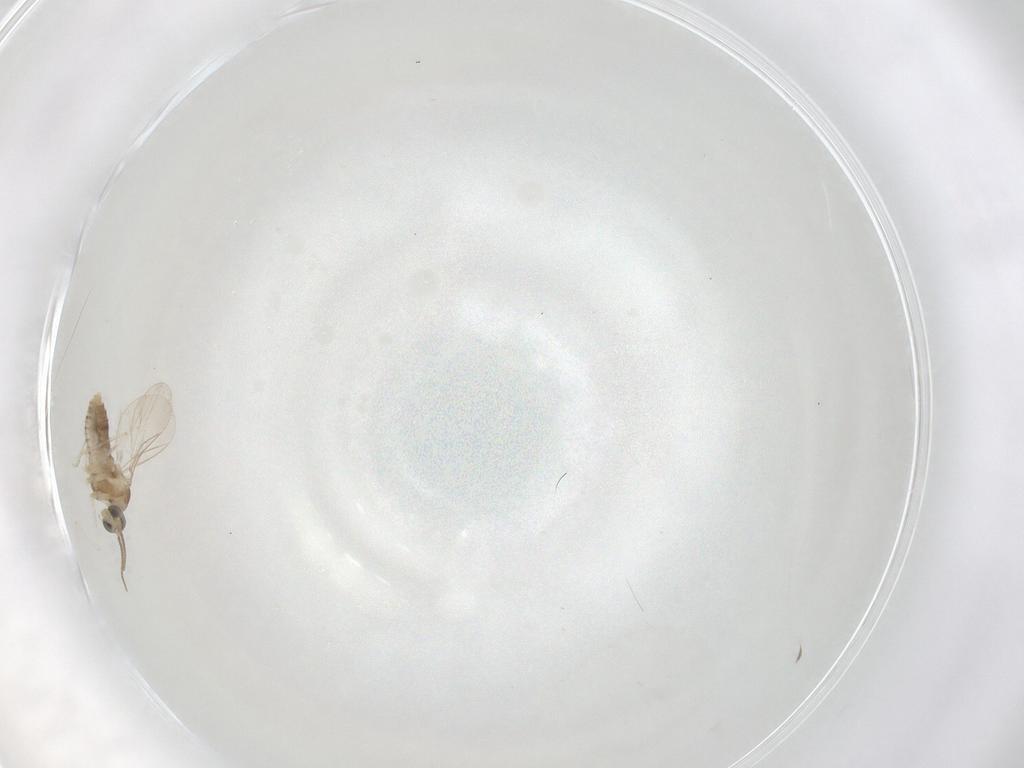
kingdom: Animalia
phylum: Arthropoda
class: Insecta
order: Diptera
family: Cecidomyiidae
